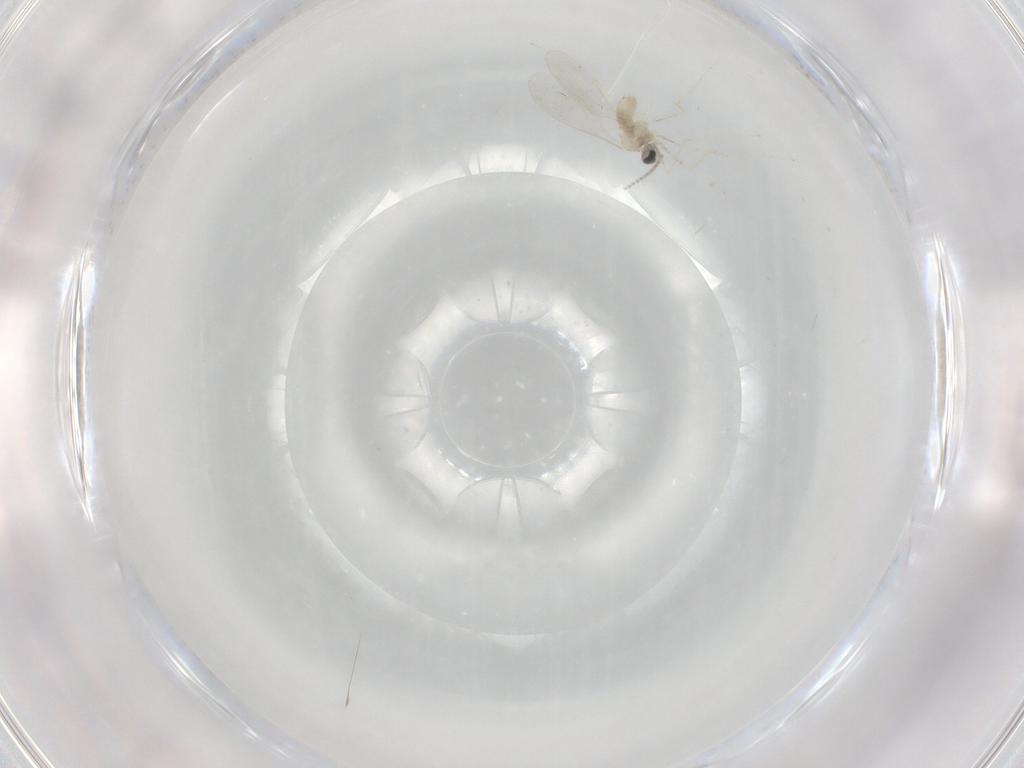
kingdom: Animalia
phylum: Arthropoda
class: Insecta
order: Diptera
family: Cecidomyiidae
